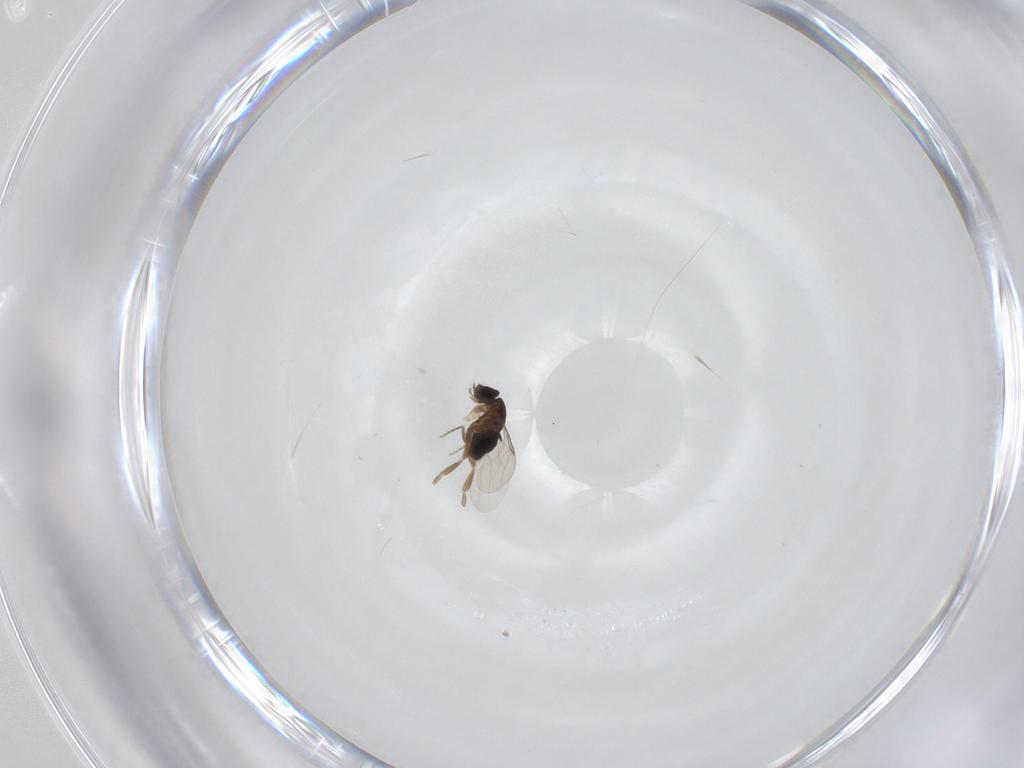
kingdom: Animalia
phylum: Arthropoda
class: Insecta
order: Diptera
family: Phoridae
